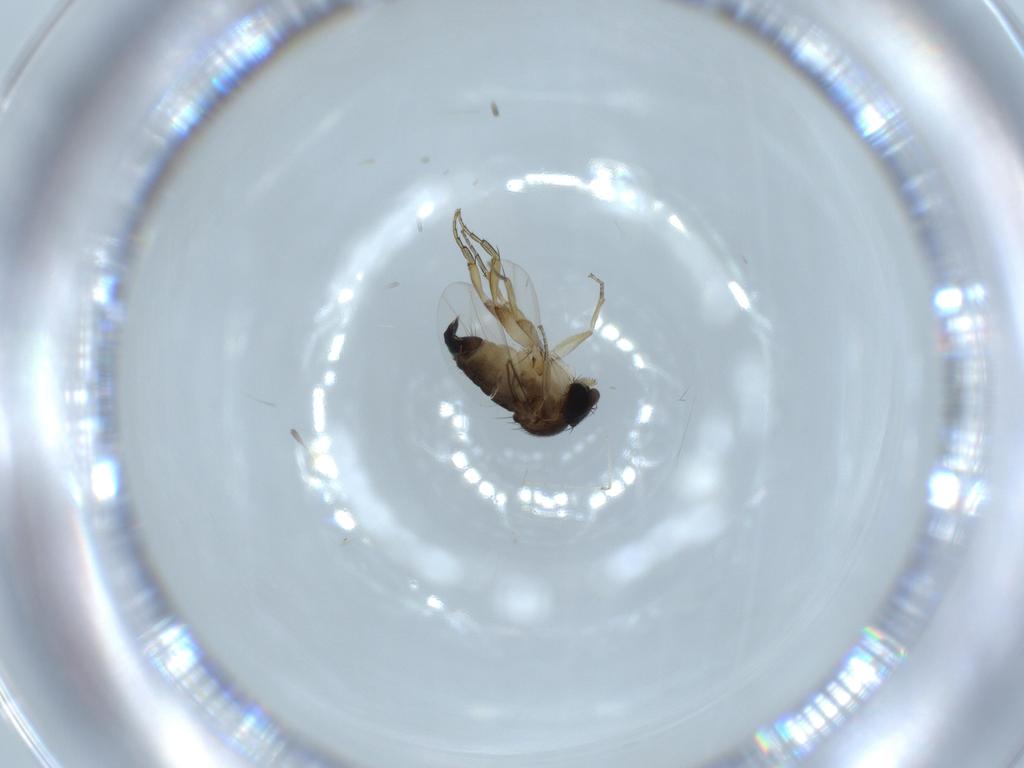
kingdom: Animalia
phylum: Arthropoda
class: Insecta
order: Diptera
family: Phoridae
